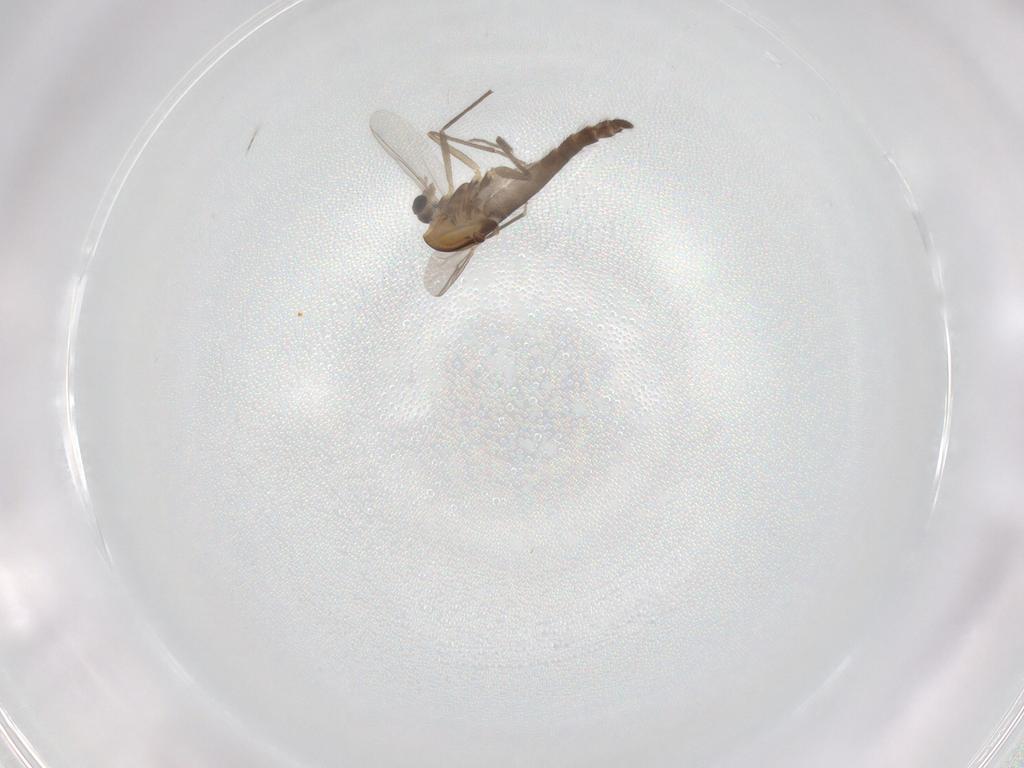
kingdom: Animalia
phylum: Arthropoda
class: Insecta
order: Diptera
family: Chironomidae
